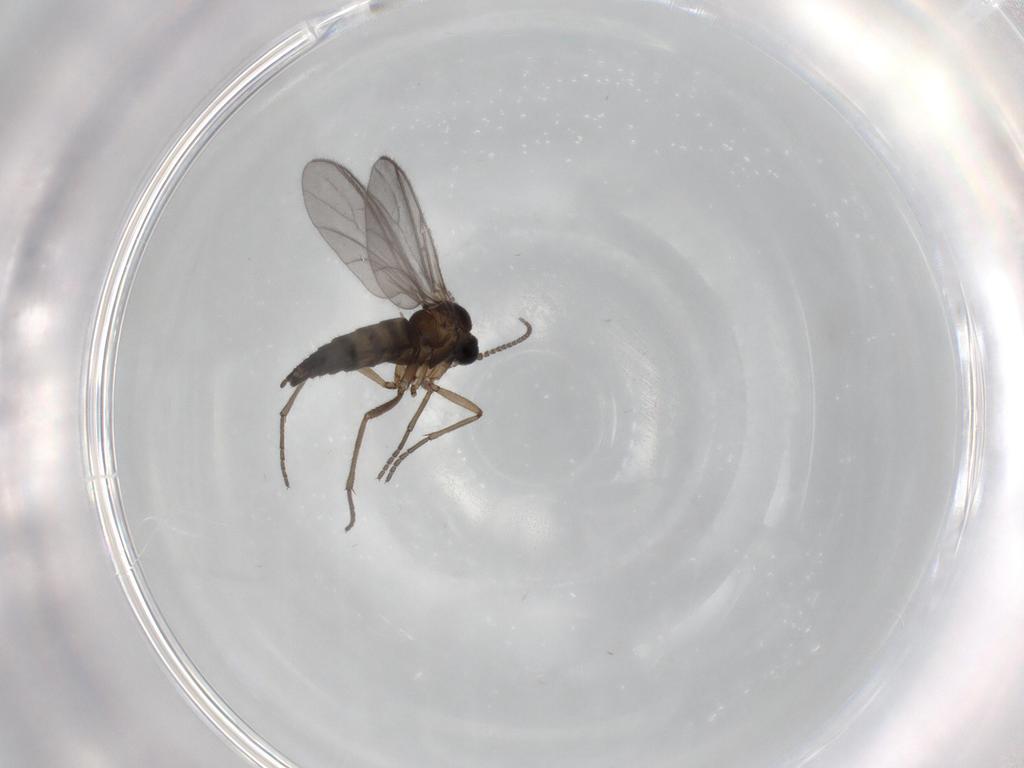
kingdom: Animalia
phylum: Arthropoda
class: Insecta
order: Diptera
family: Sciaridae
